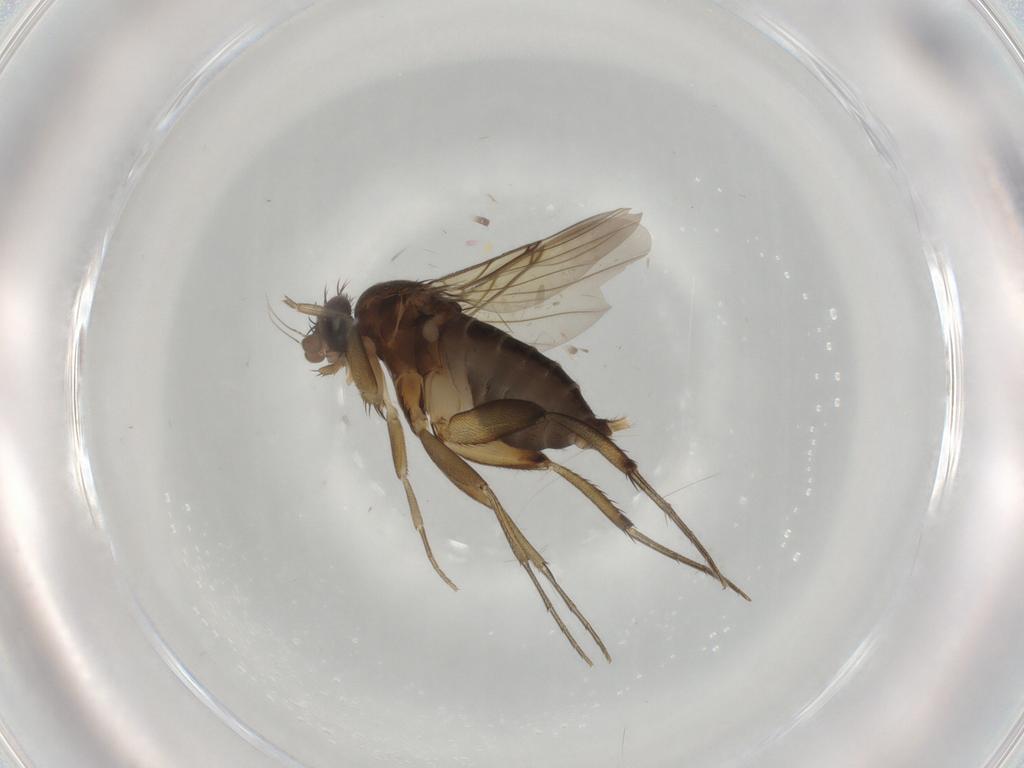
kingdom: Animalia
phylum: Arthropoda
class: Insecta
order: Diptera
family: Phoridae
